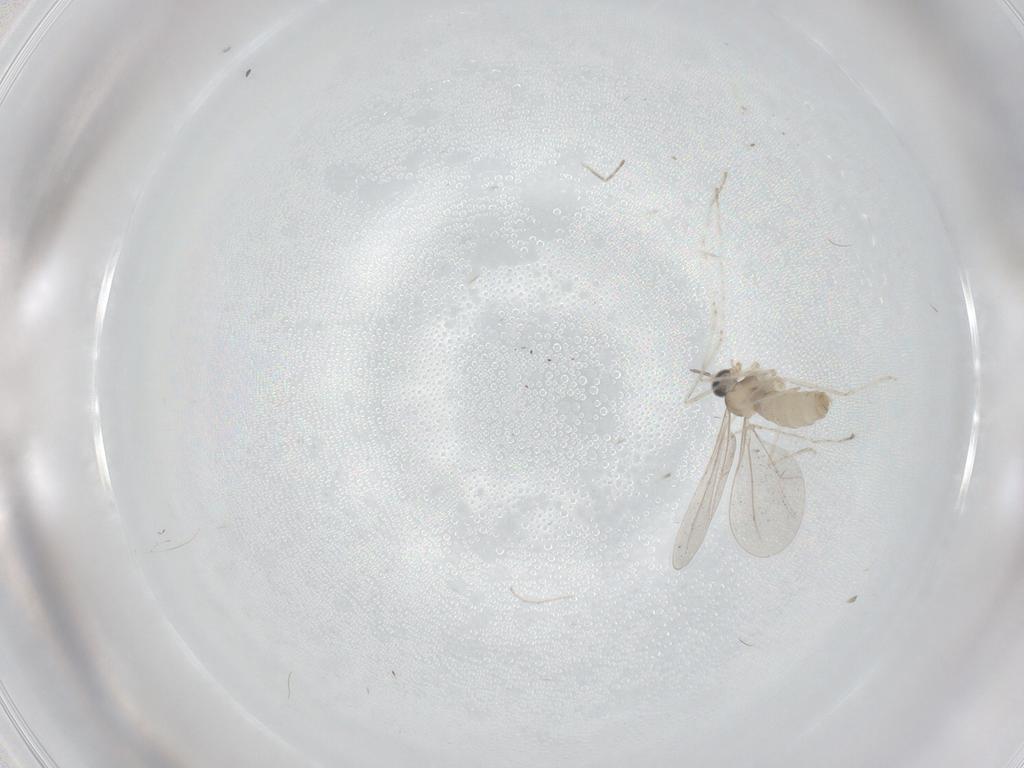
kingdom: Animalia
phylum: Arthropoda
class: Insecta
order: Diptera
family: Cecidomyiidae
